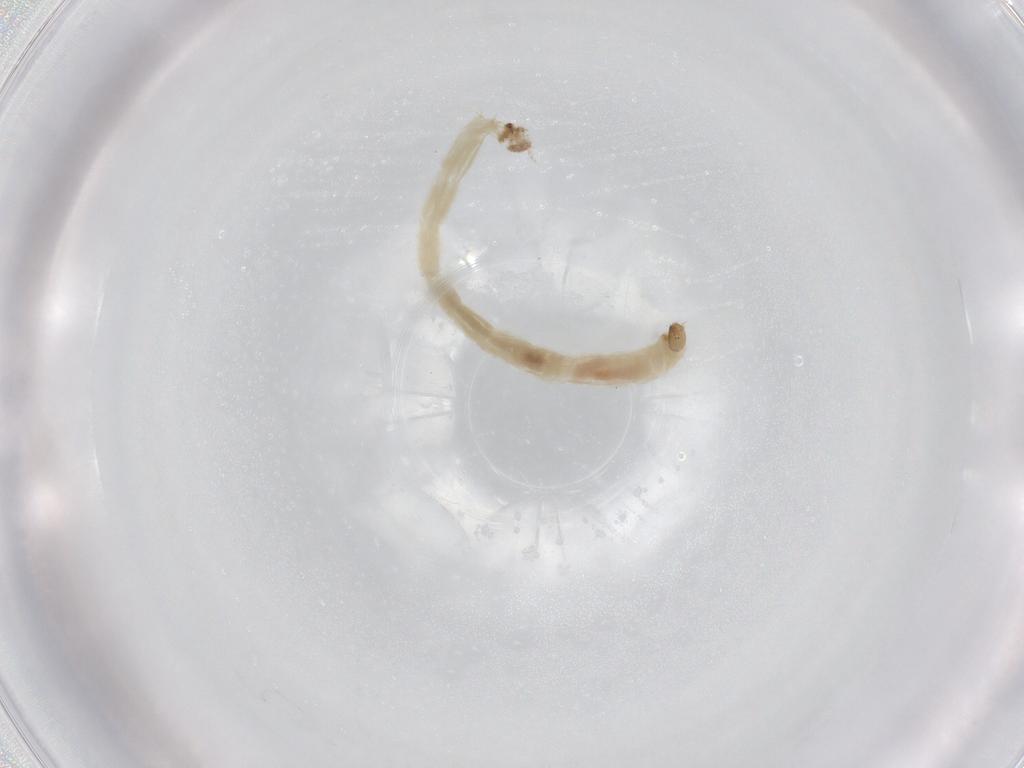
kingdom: Animalia
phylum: Arthropoda
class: Insecta
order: Diptera
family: Chironomidae
